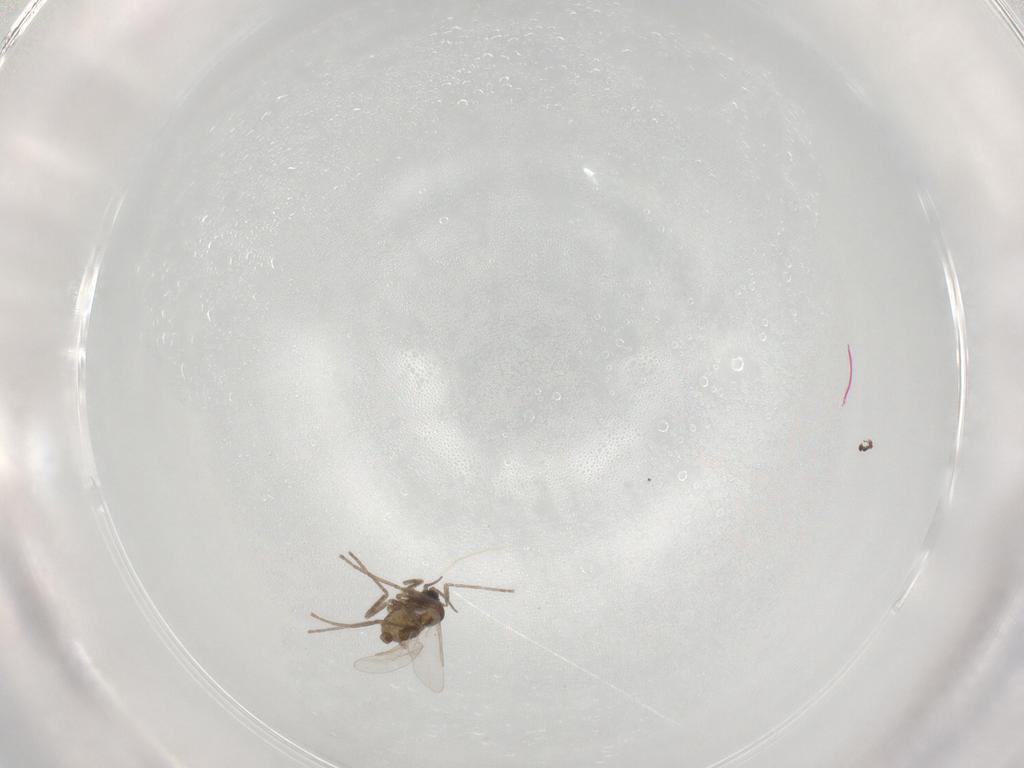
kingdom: Animalia
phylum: Arthropoda
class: Insecta
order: Diptera
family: Cecidomyiidae
